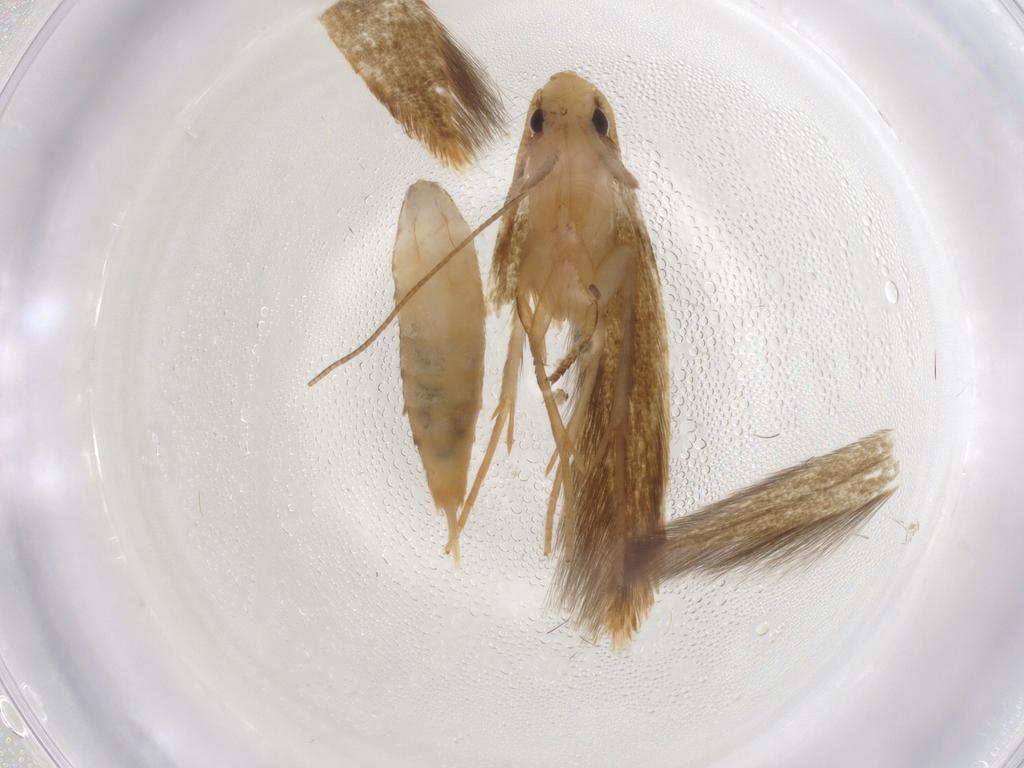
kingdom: Animalia
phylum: Arthropoda
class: Insecta
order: Lepidoptera
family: Tineidae
